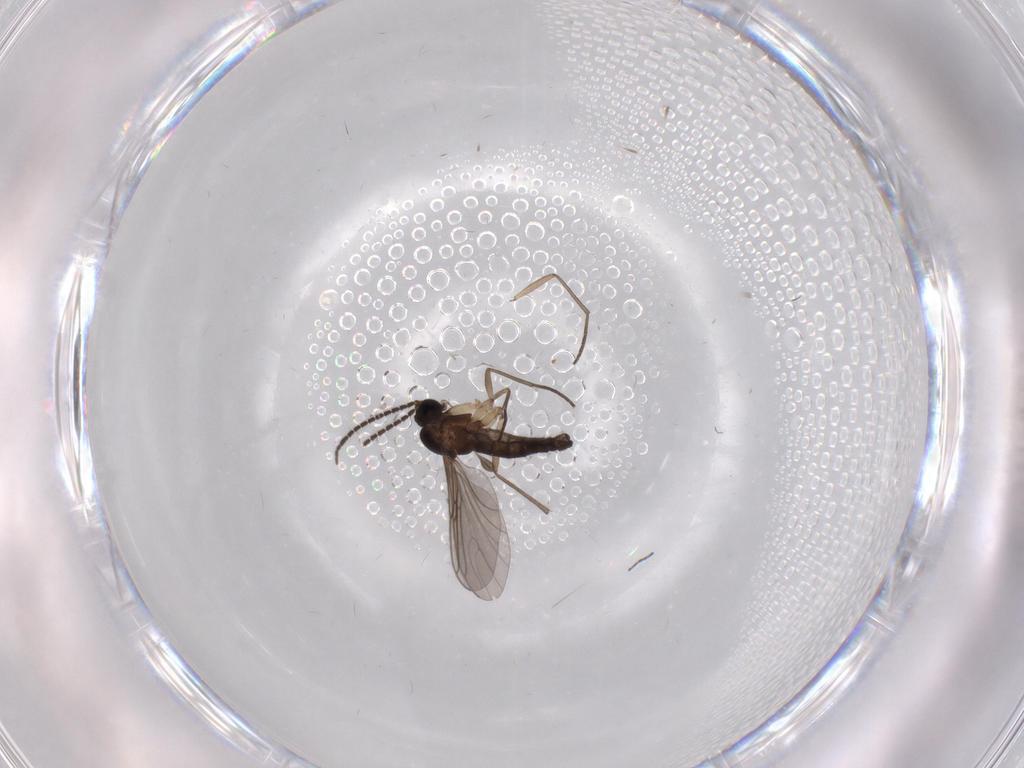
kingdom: Animalia
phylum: Arthropoda
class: Insecta
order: Diptera
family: Sciaridae
